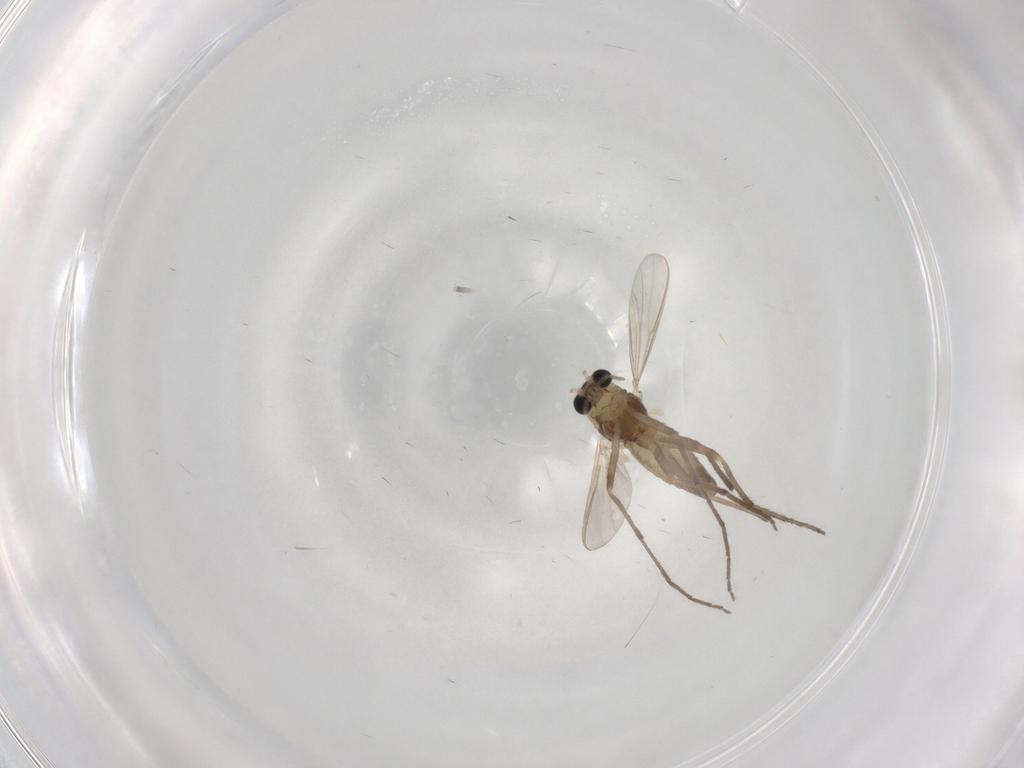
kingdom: Animalia
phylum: Arthropoda
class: Insecta
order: Diptera
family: Chironomidae
